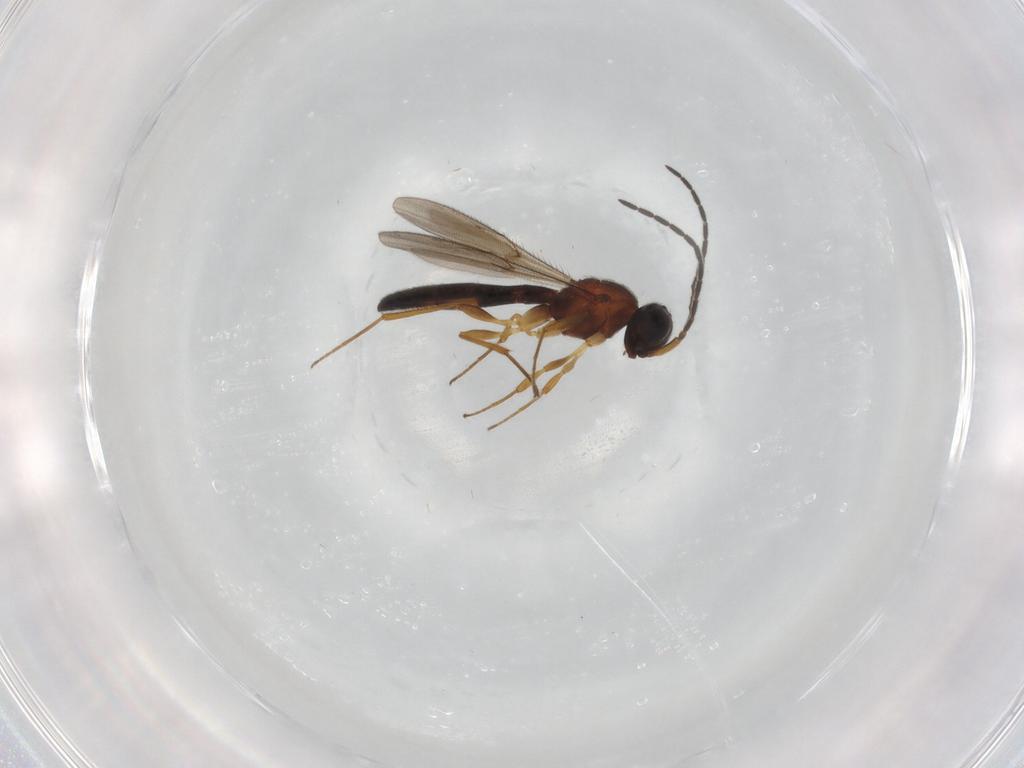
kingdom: Animalia
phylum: Arthropoda
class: Insecta
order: Hymenoptera
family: Scelionidae
